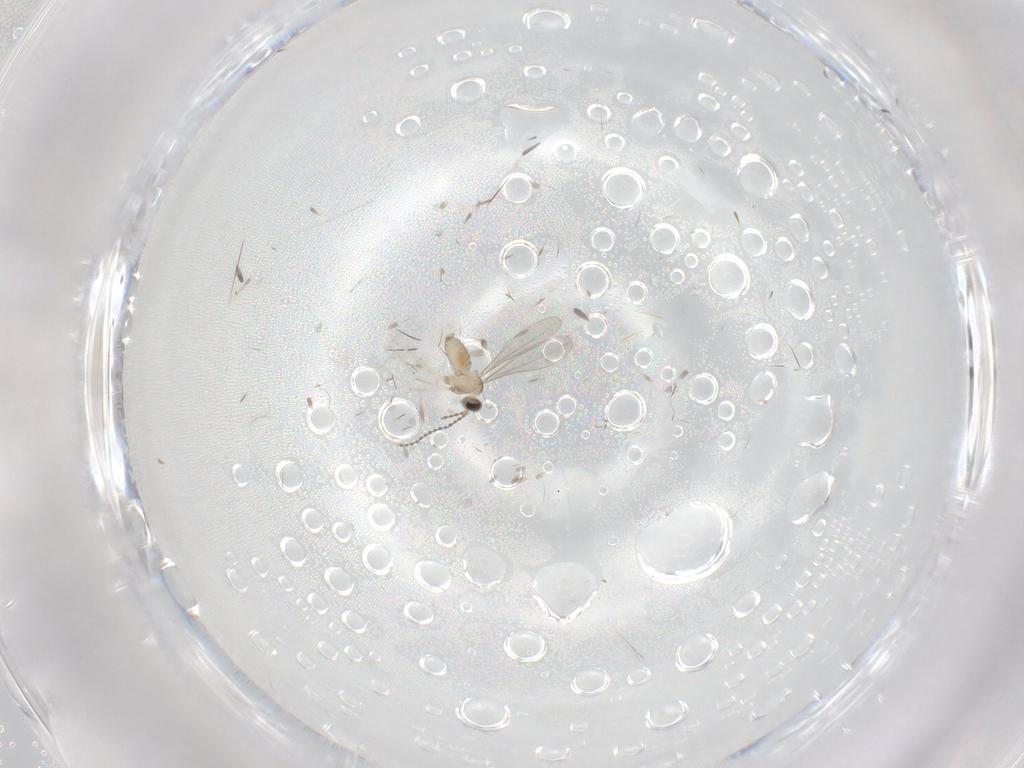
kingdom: Animalia
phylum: Arthropoda
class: Insecta
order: Diptera
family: Cecidomyiidae
